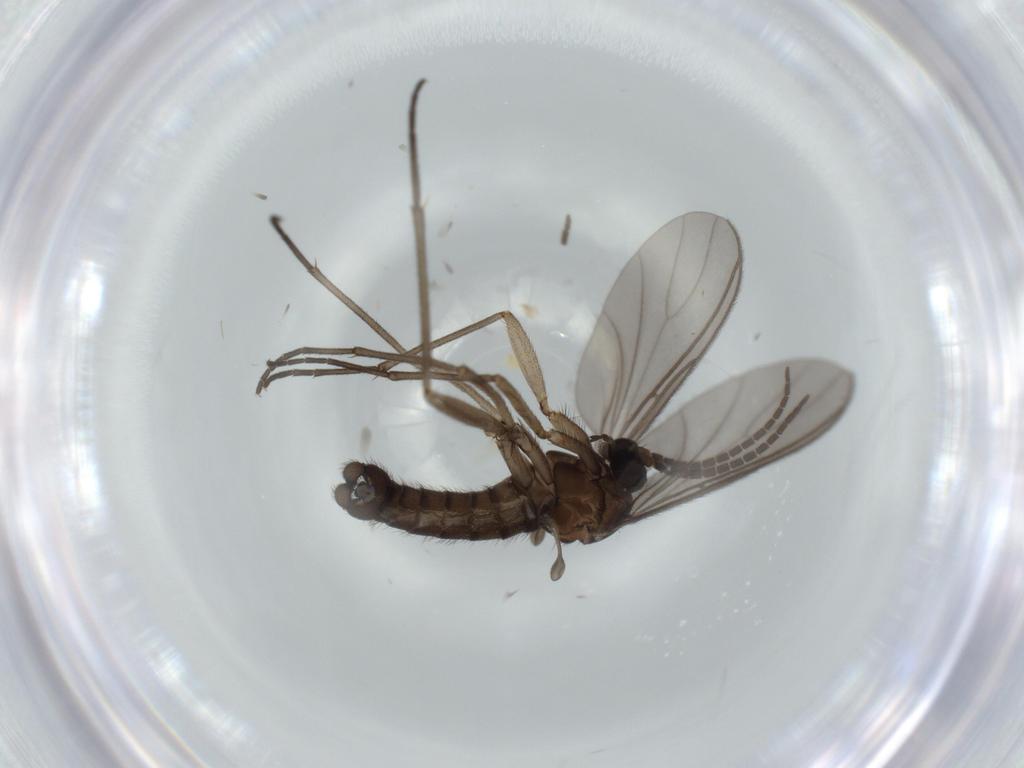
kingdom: Animalia
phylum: Arthropoda
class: Insecta
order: Diptera
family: Sciaridae
